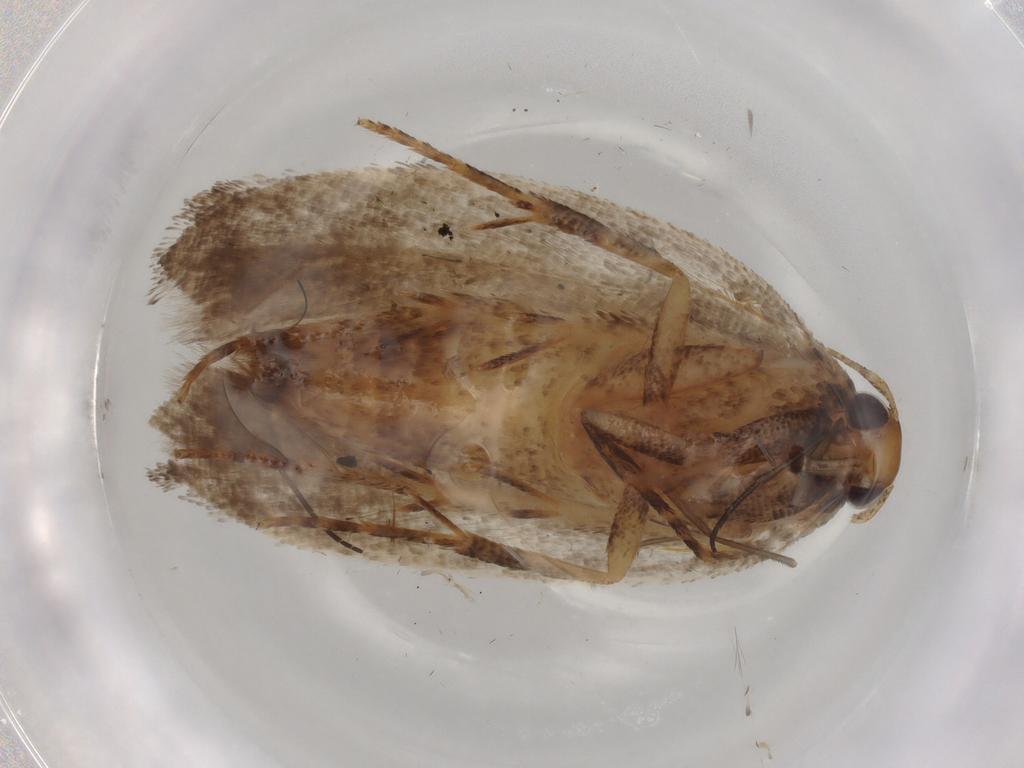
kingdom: Animalia
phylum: Arthropoda
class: Insecta
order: Lepidoptera
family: Gelechiidae
